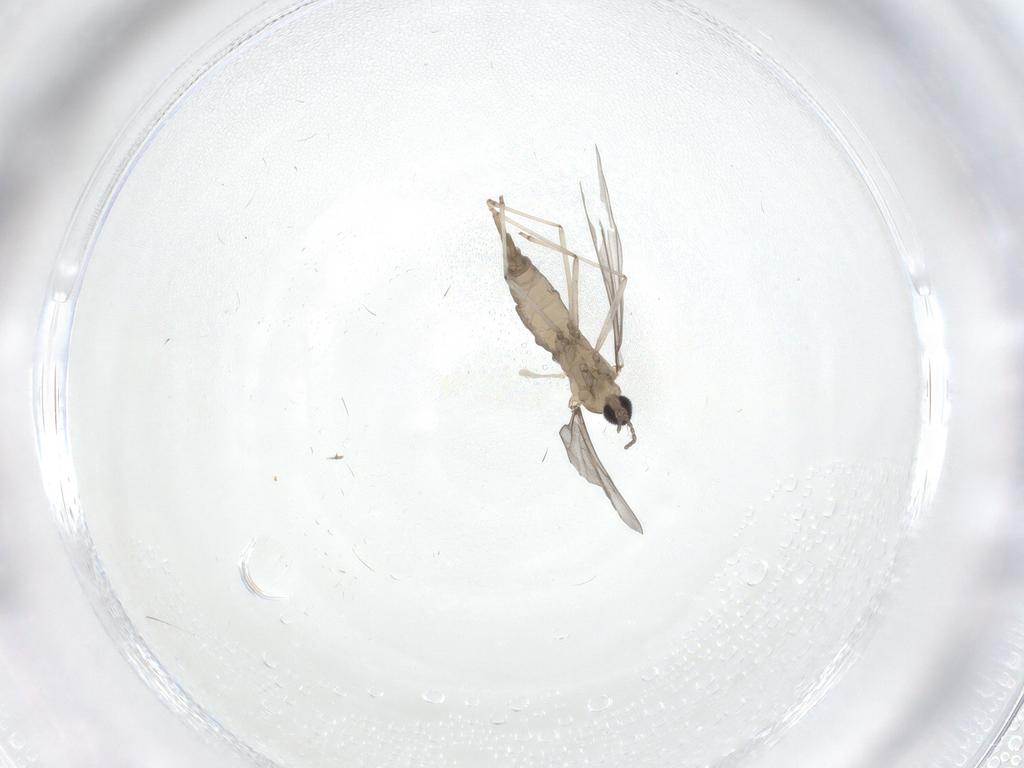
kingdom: Animalia
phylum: Arthropoda
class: Insecta
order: Diptera
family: Cecidomyiidae
